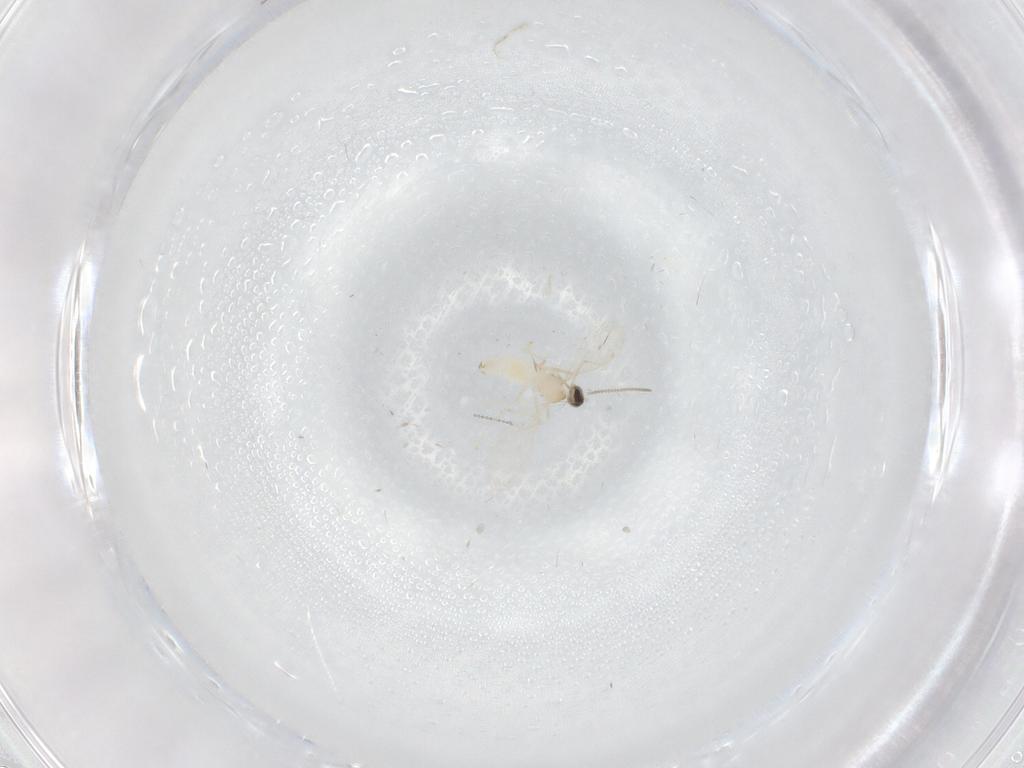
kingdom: Animalia
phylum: Arthropoda
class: Insecta
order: Diptera
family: Cecidomyiidae
